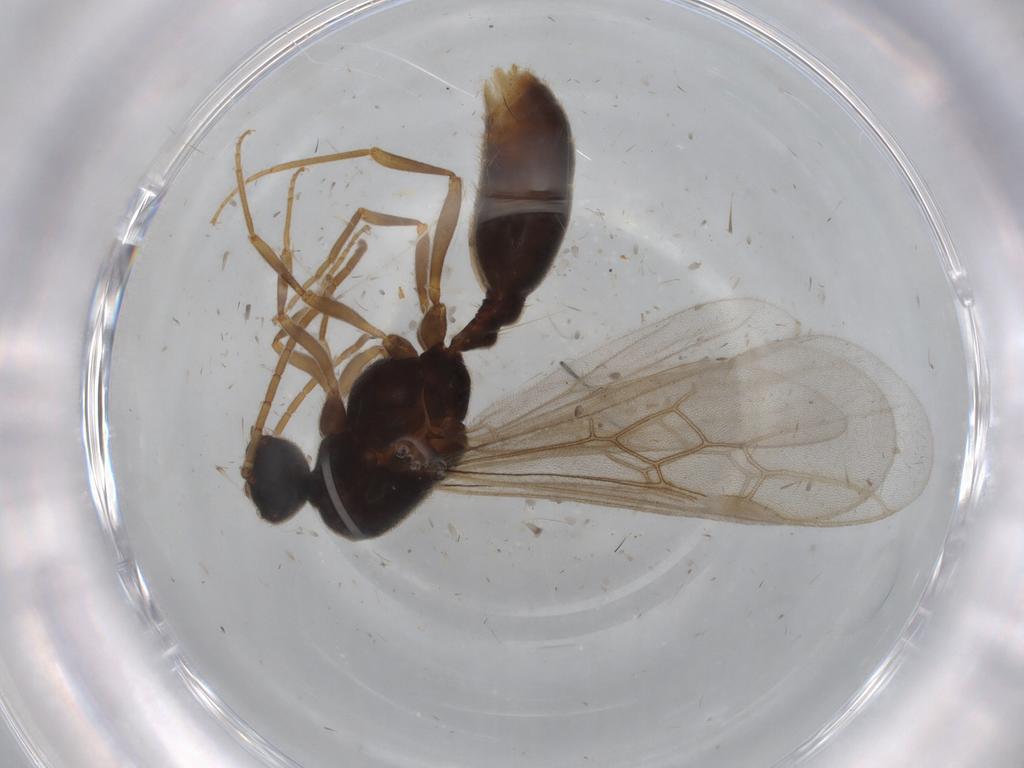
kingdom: Animalia
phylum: Arthropoda
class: Insecta
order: Hymenoptera
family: Formicidae
